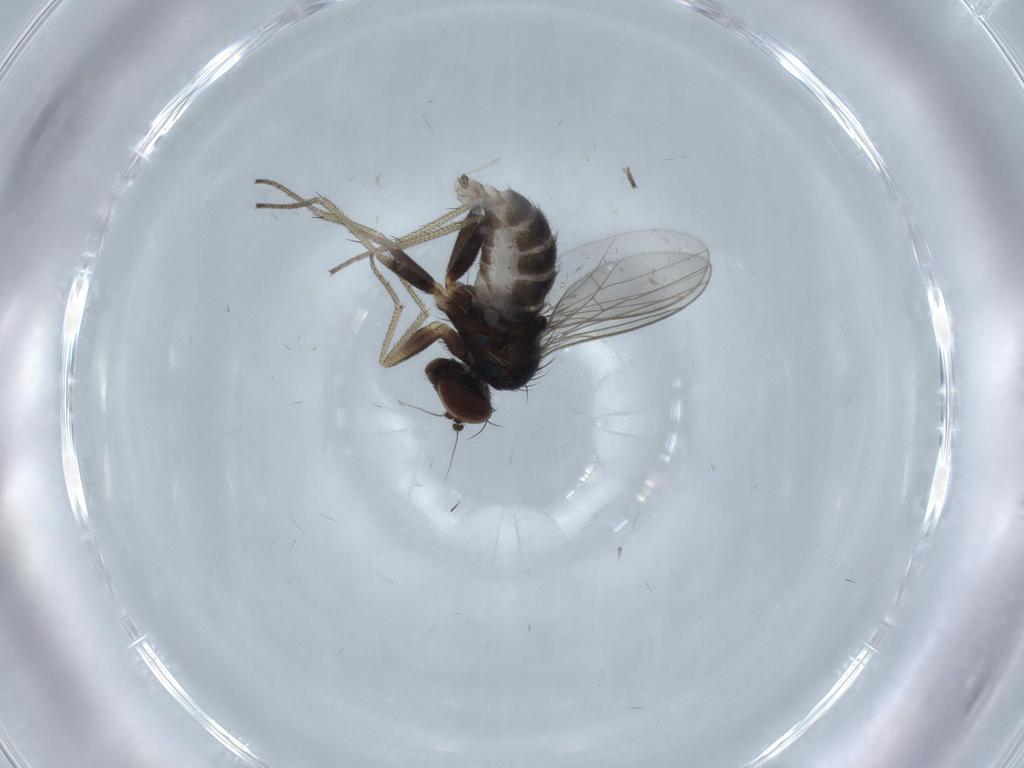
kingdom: Animalia
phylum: Arthropoda
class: Insecta
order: Diptera
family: Dolichopodidae
